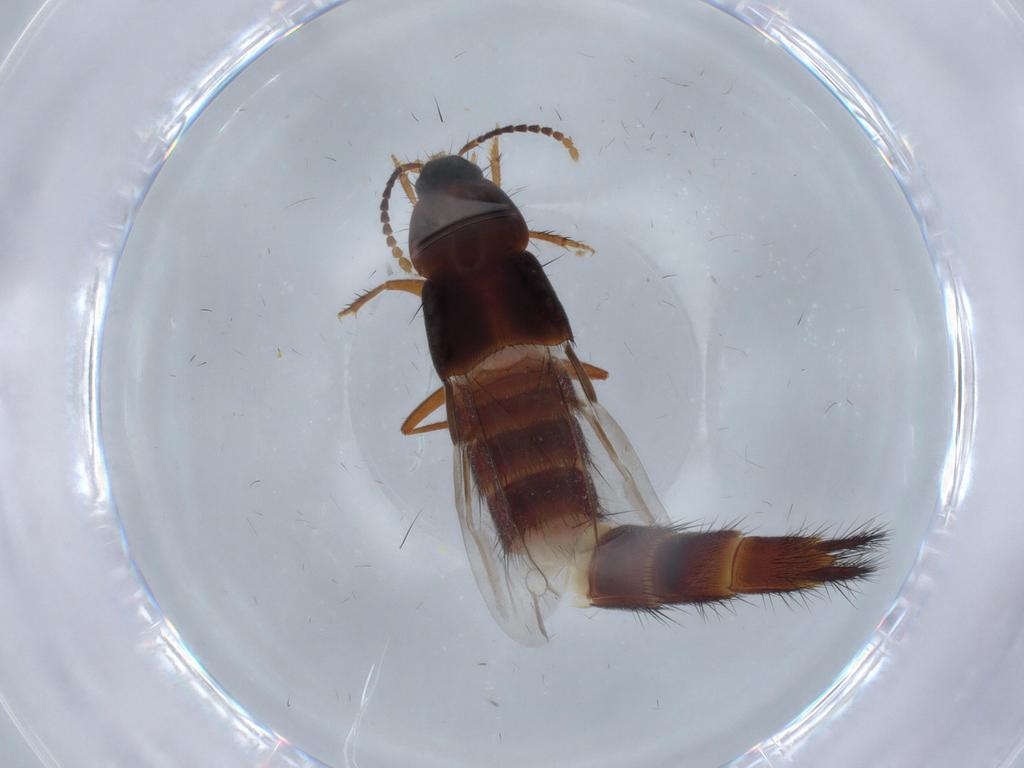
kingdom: Animalia
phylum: Arthropoda
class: Insecta
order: Coleoptera
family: Staphylinidae
